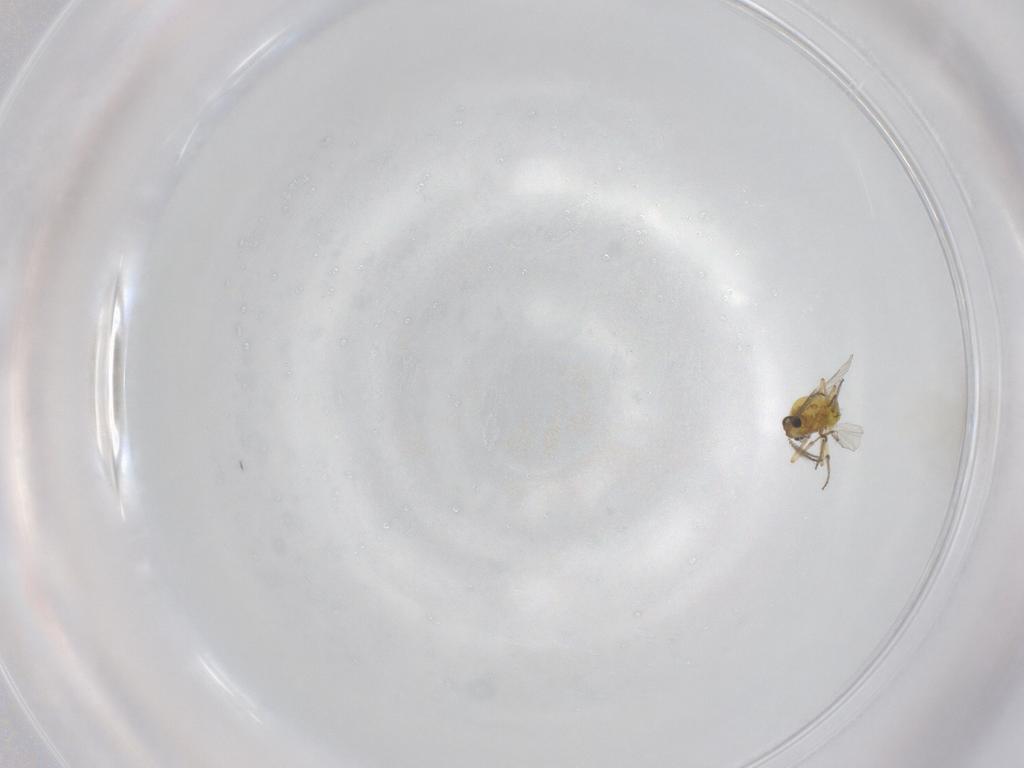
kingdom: Animalia
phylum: Arthropoda
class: Insecta
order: Diptera
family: Ceratopogonidae
